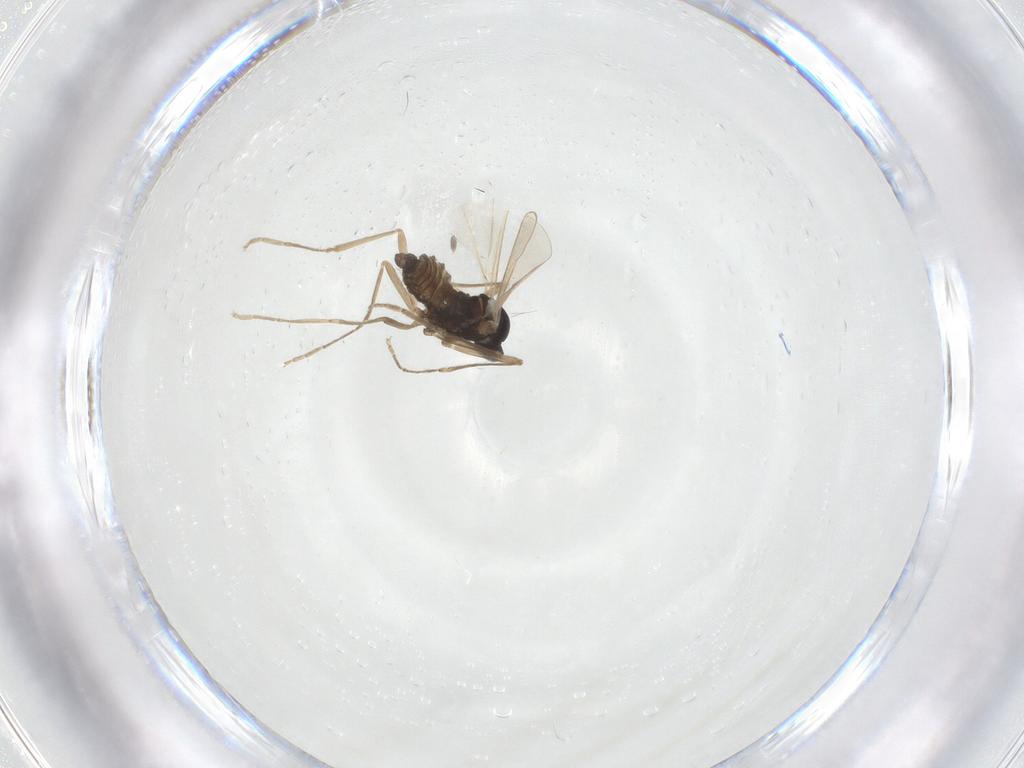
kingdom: Animalia
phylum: Arthropoda
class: Insecta
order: Diptera
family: Cecidomyiidae
